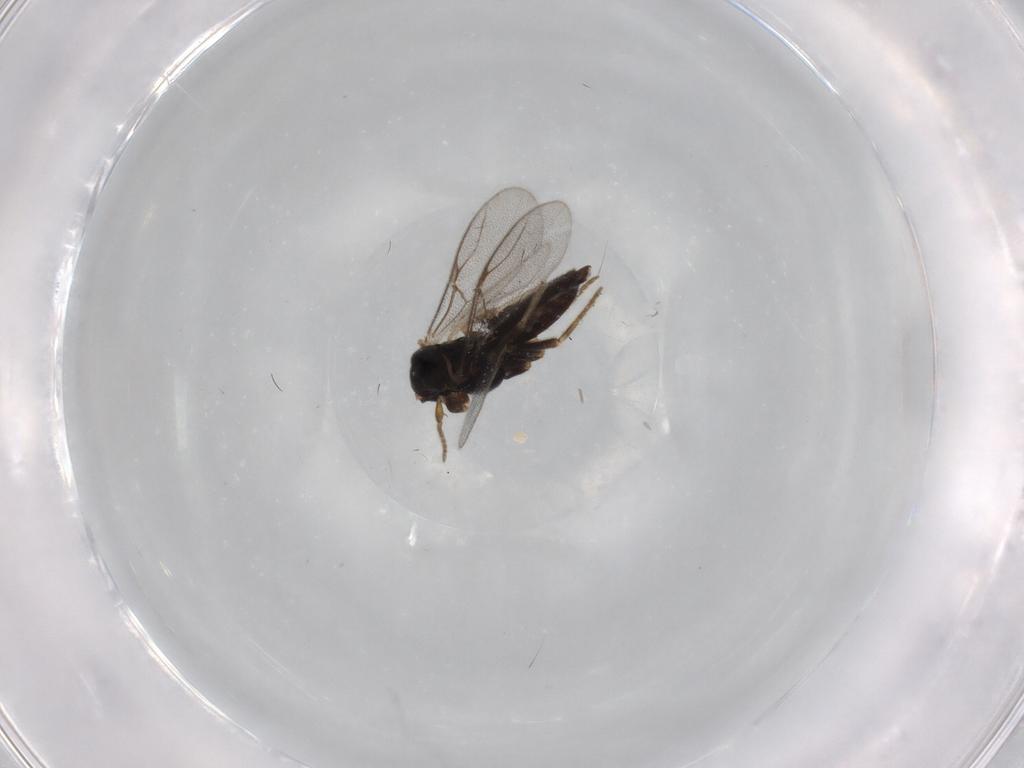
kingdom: Animalia
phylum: Arthropoda
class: Insecta
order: Hymenoptera
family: Dryinidae
